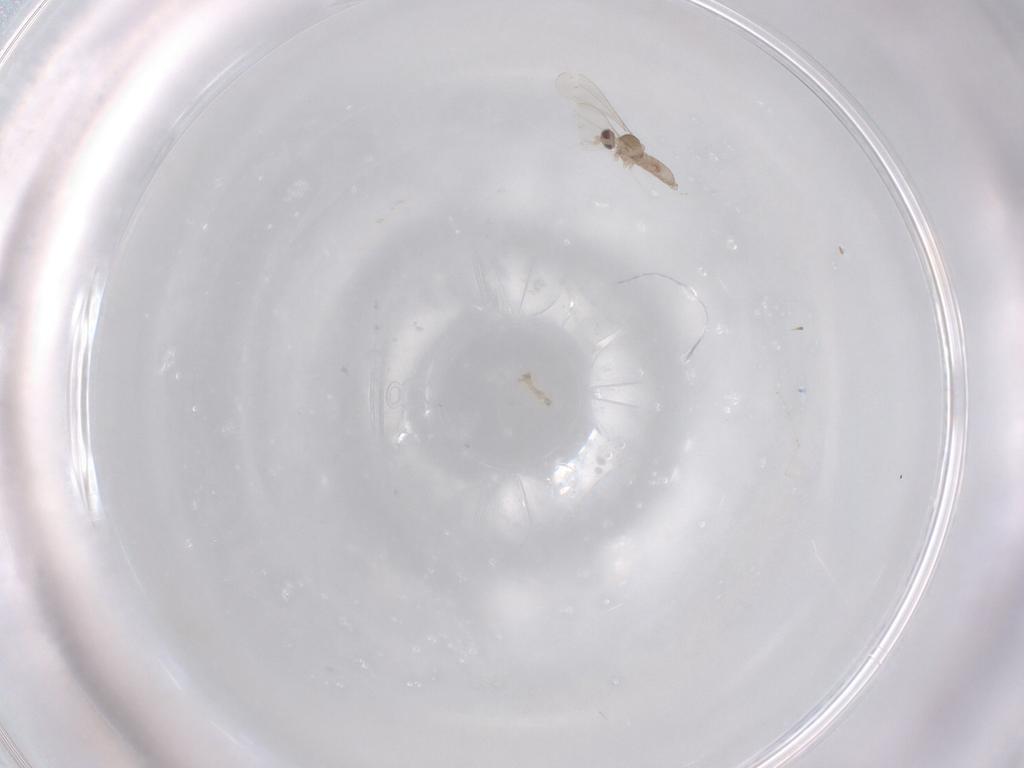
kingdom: Animalia
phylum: Arthropoda
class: Insecta
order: Diptera
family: Cecidomyiidae
